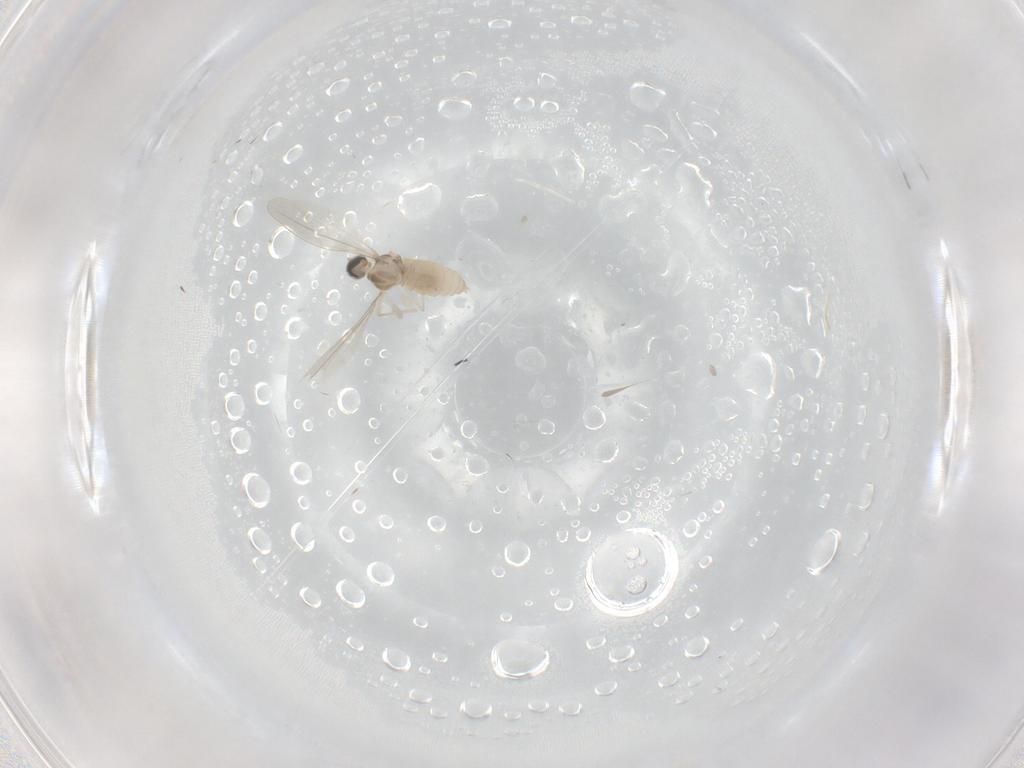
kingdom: Animalia
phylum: Arthropoda
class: Insecta
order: Diptera
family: Cecidomyiidae
